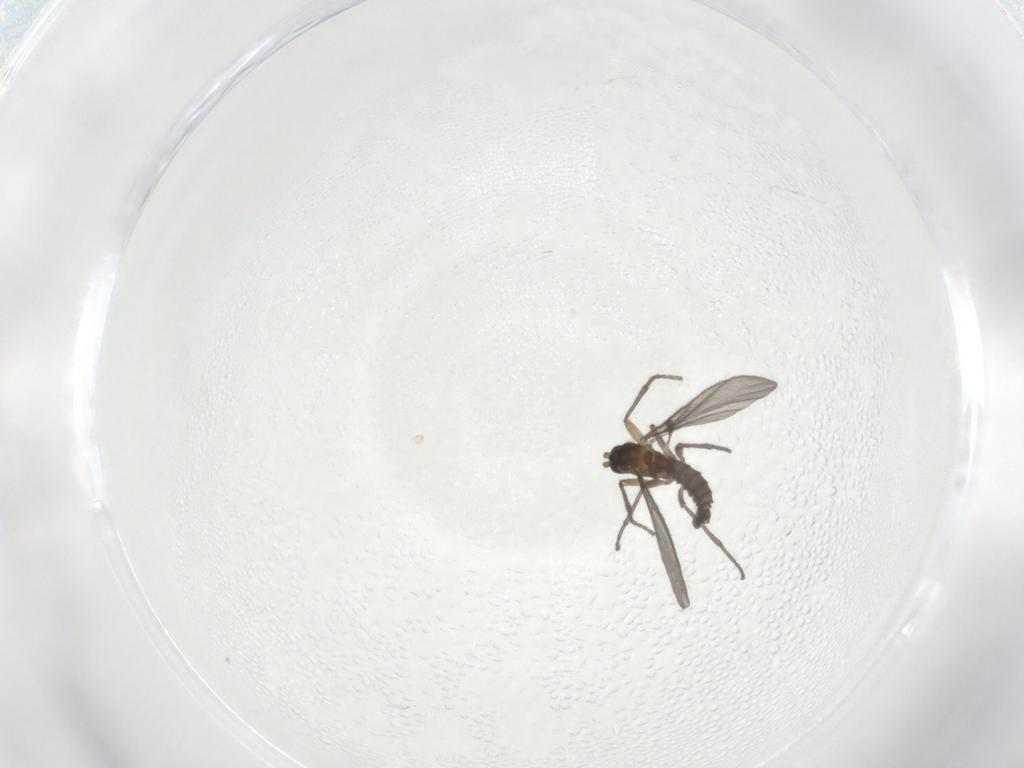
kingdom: Animalia
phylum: Arthropoda
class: Insecta
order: Diptera
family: Sciaridae
